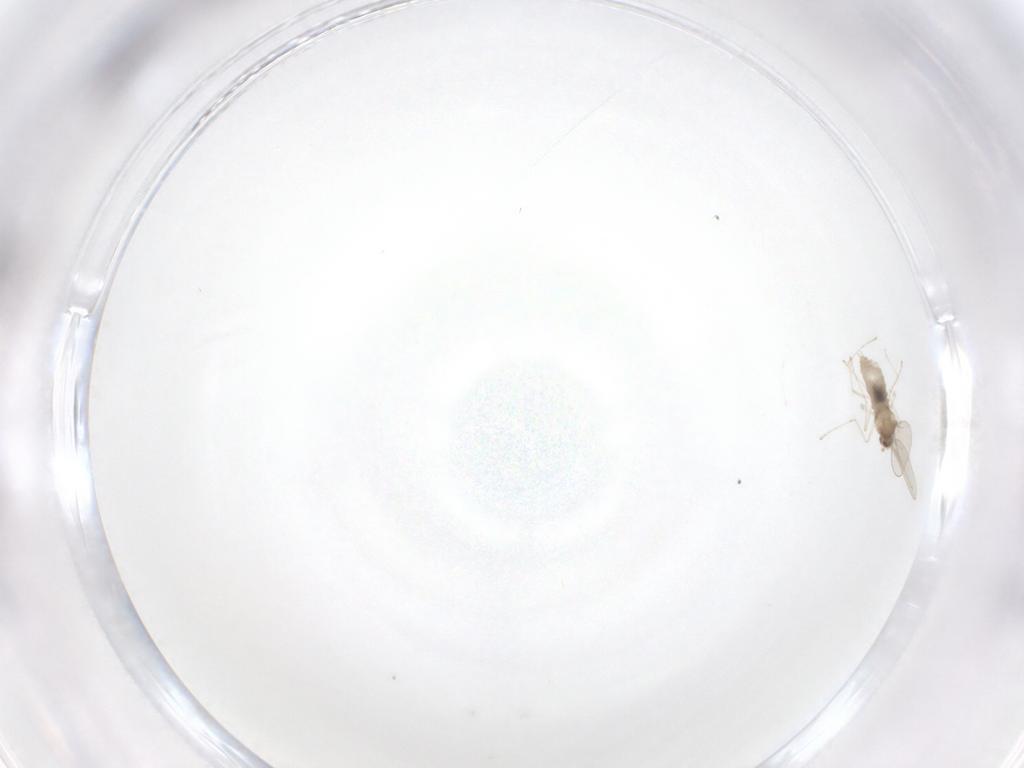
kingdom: Animalia
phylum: Arthropoda
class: Insecta
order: Diptera
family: Cecidomyiidae
